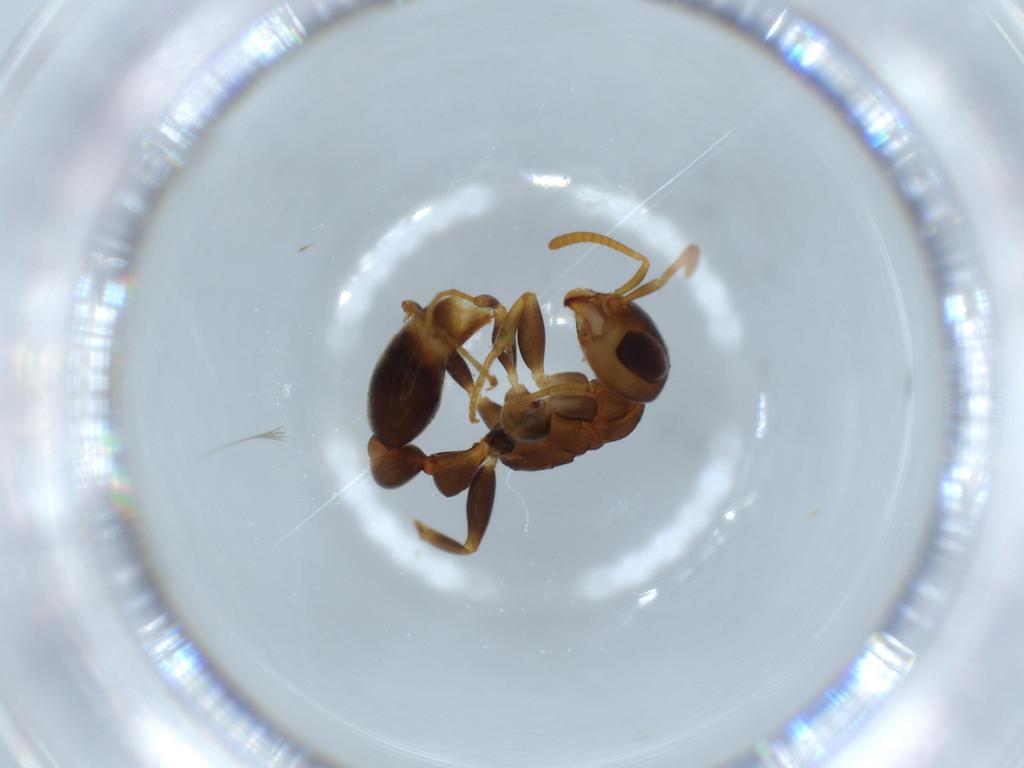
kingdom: Animalia
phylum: Arthropoda
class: Insecta
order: Hymenoptera
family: Formicidae
